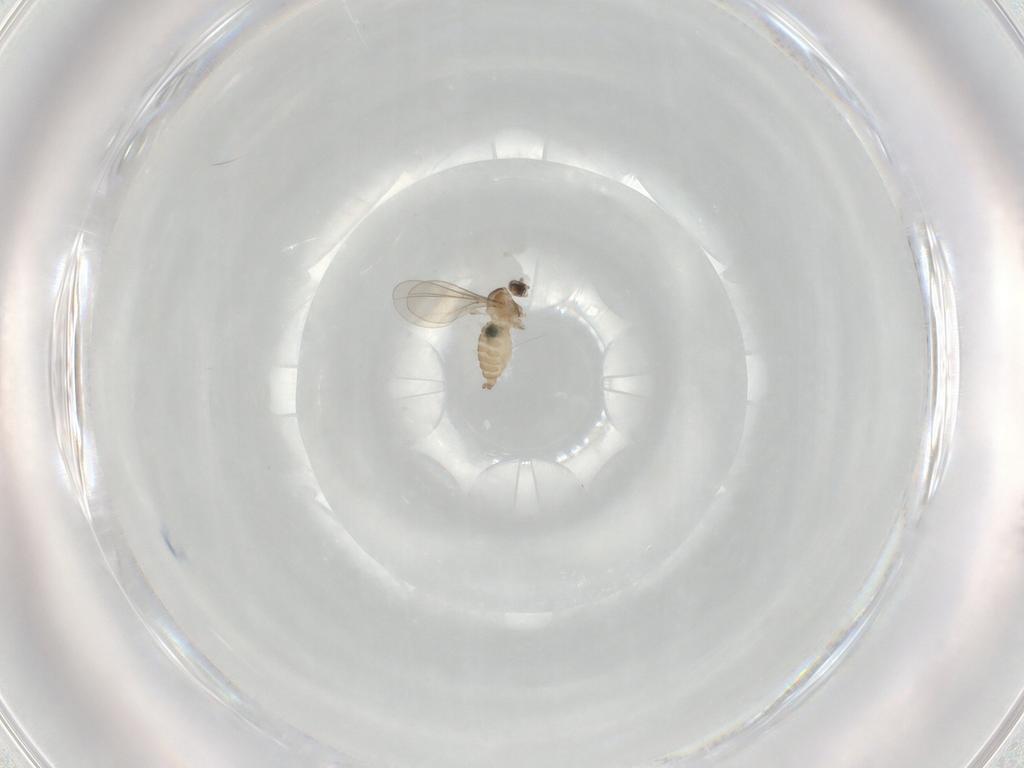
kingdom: Animalia
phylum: Arthropoda
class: Insecta
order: Diptera
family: Cecidomyiidae
